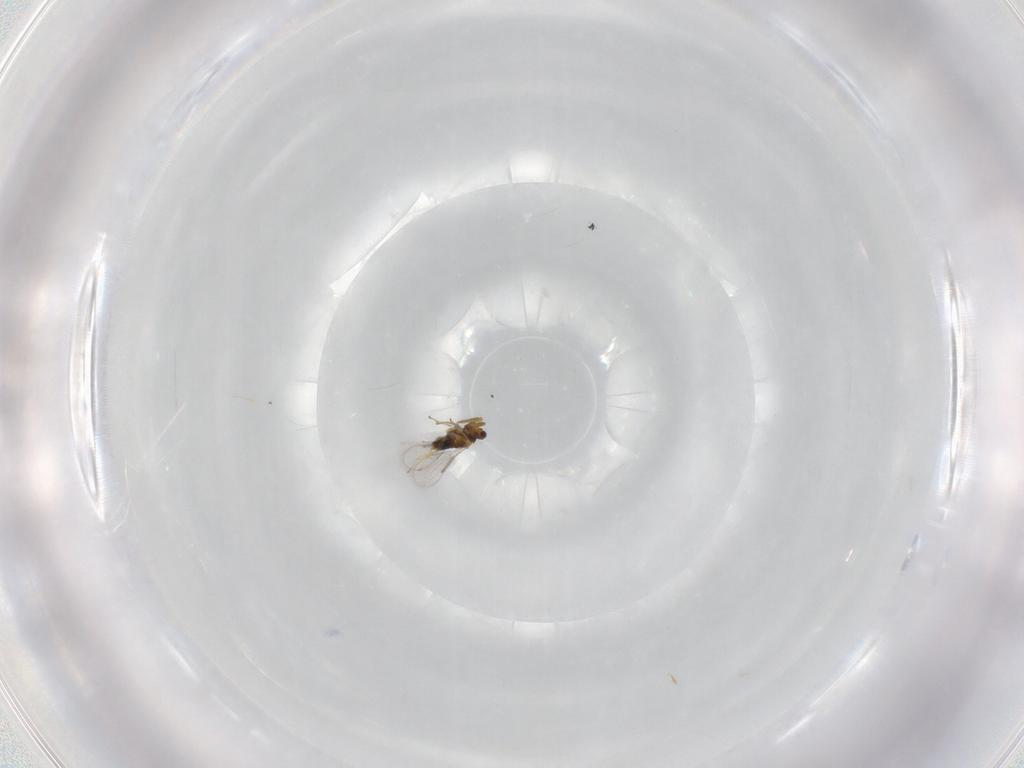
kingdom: Animalia
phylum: Arthropoda
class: Insecta
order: Hymenoptera
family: Aphelinidae
